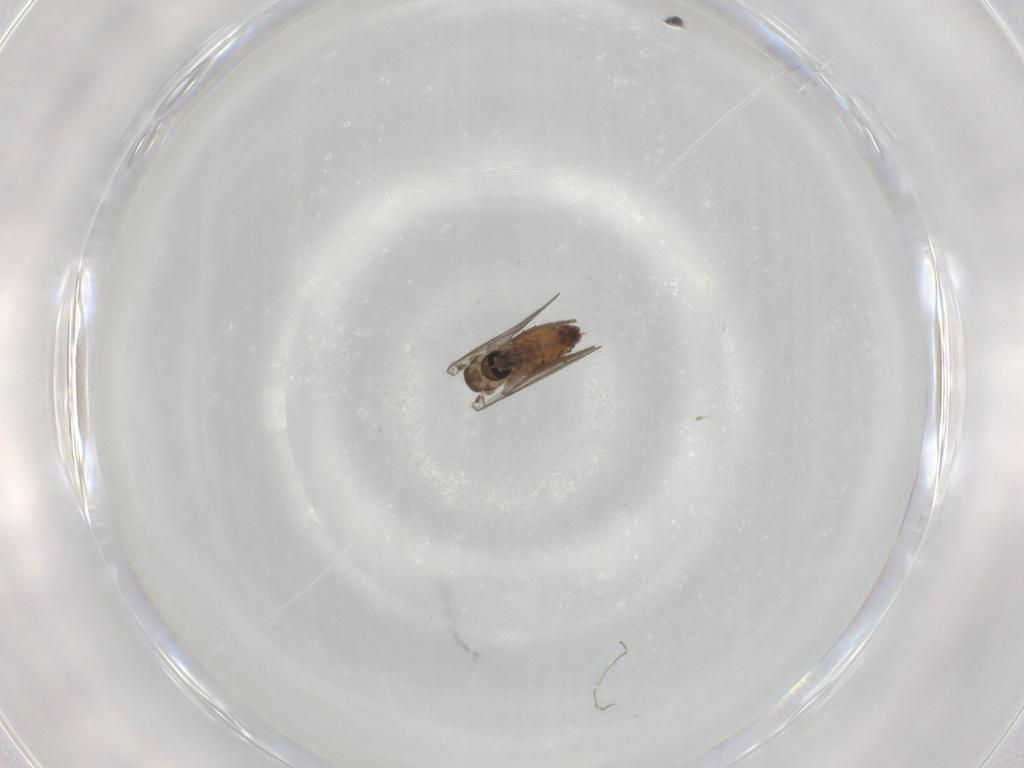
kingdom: Animalia
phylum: Arthropoda
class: Insecta
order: Diptera
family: Psychodidae
